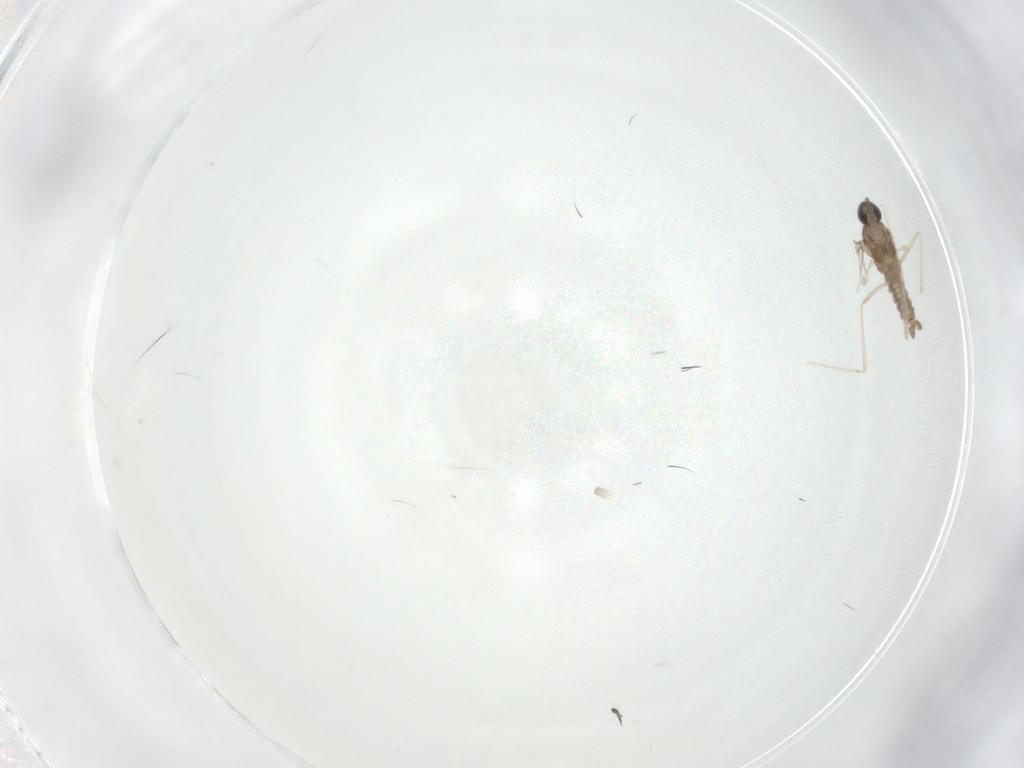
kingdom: Animalia
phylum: Arthropoda
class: Insecta
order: Diptera
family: Cecidomyiidae
